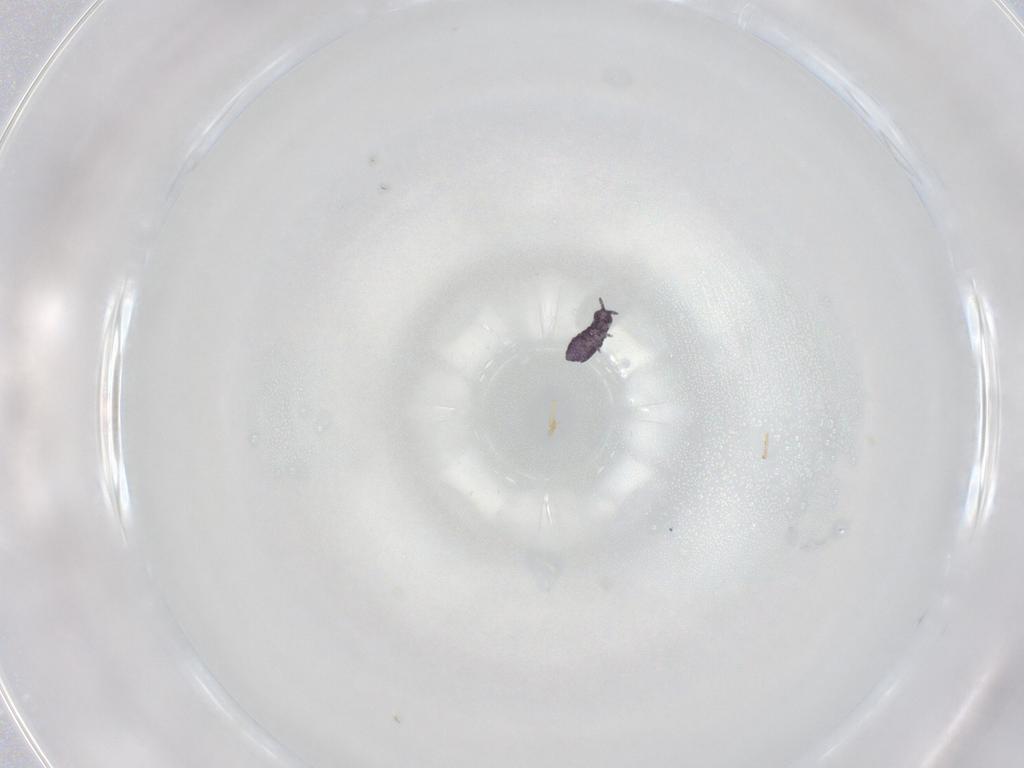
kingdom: Animalia
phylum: Arthropoda
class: Collembola
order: Poduromorpha
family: Brachystomellidae
